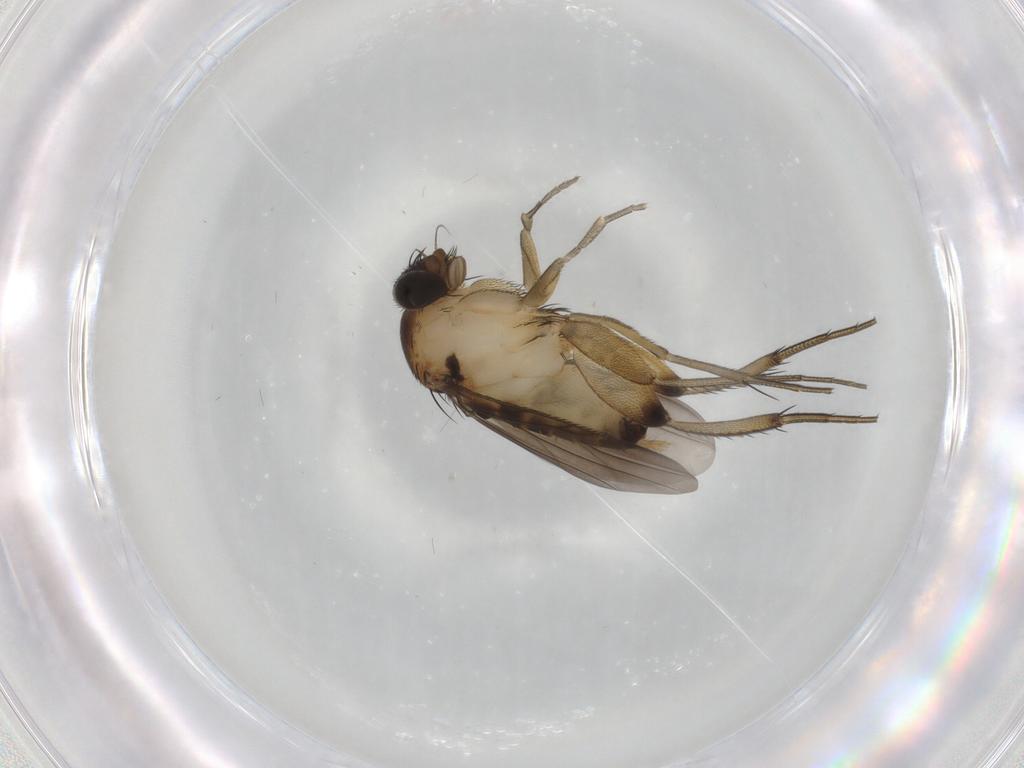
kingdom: Animalia
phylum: Arthropoda
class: Insecta
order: Diptera
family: Phoridae
